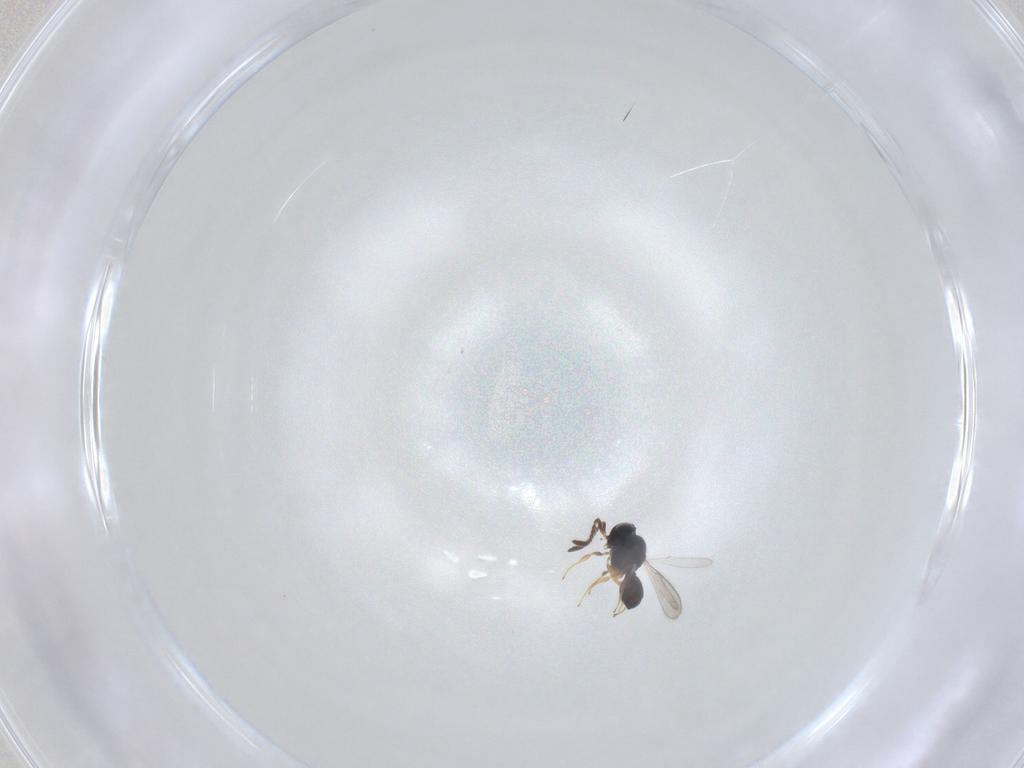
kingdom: Animalia
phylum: Arthropoda
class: Insecta
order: Hymenoptera
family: Scelionidae
